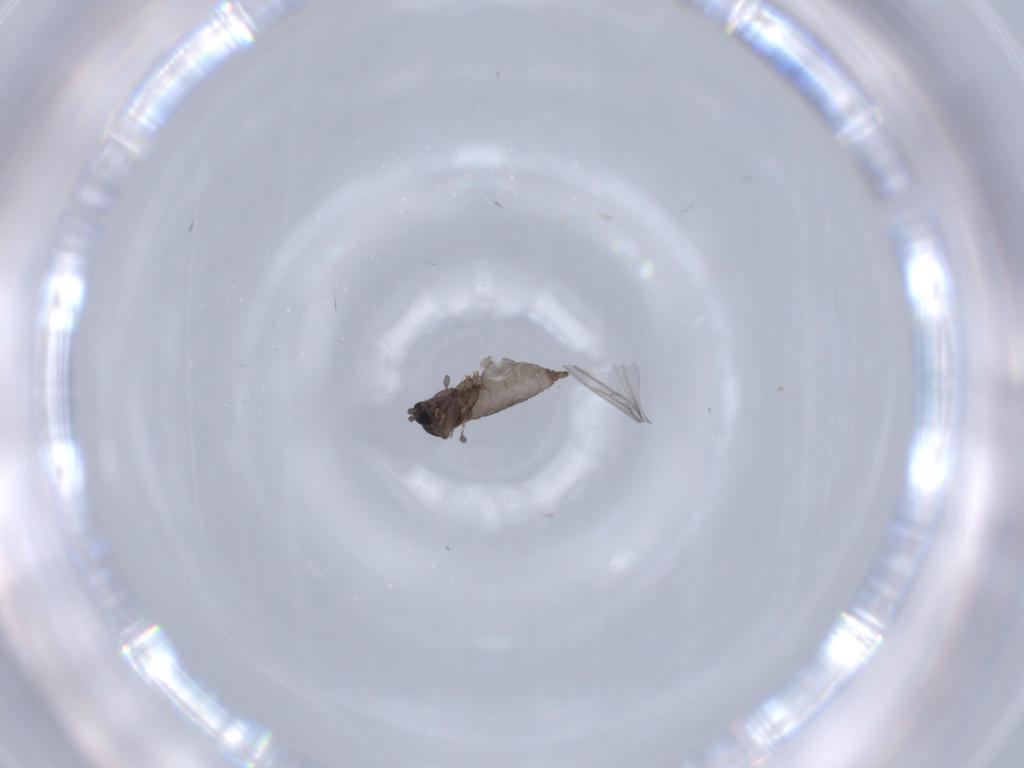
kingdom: Animalia
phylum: Arthropoda
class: Insecta
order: Diptera
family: Sciaridae
